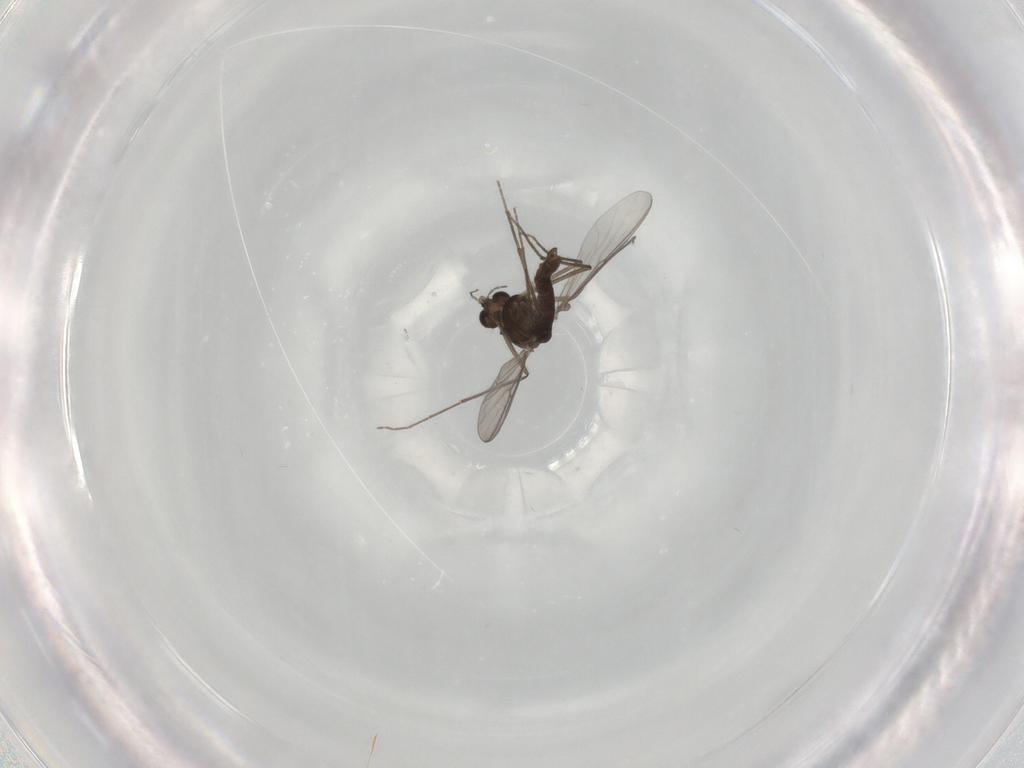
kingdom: Animalia
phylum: Arthropoda
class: Insecta
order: Diptera
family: Chironomidae
